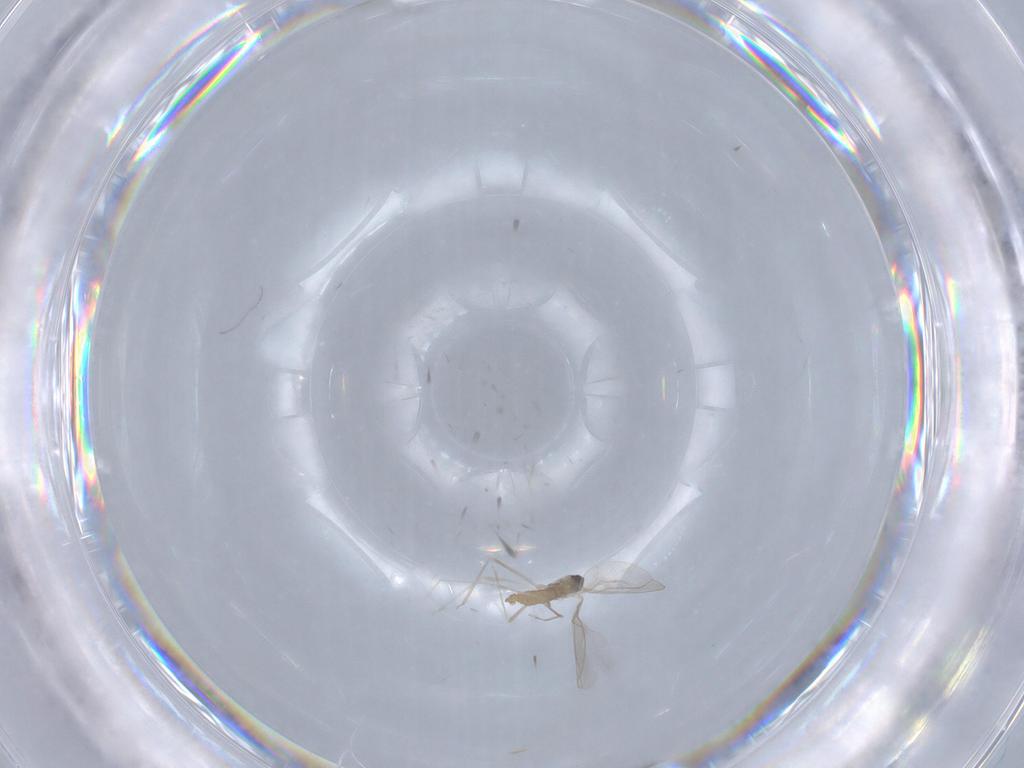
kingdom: Animalia
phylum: Arthropoda
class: Insecta
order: Diptera
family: Cecidomyiidae
